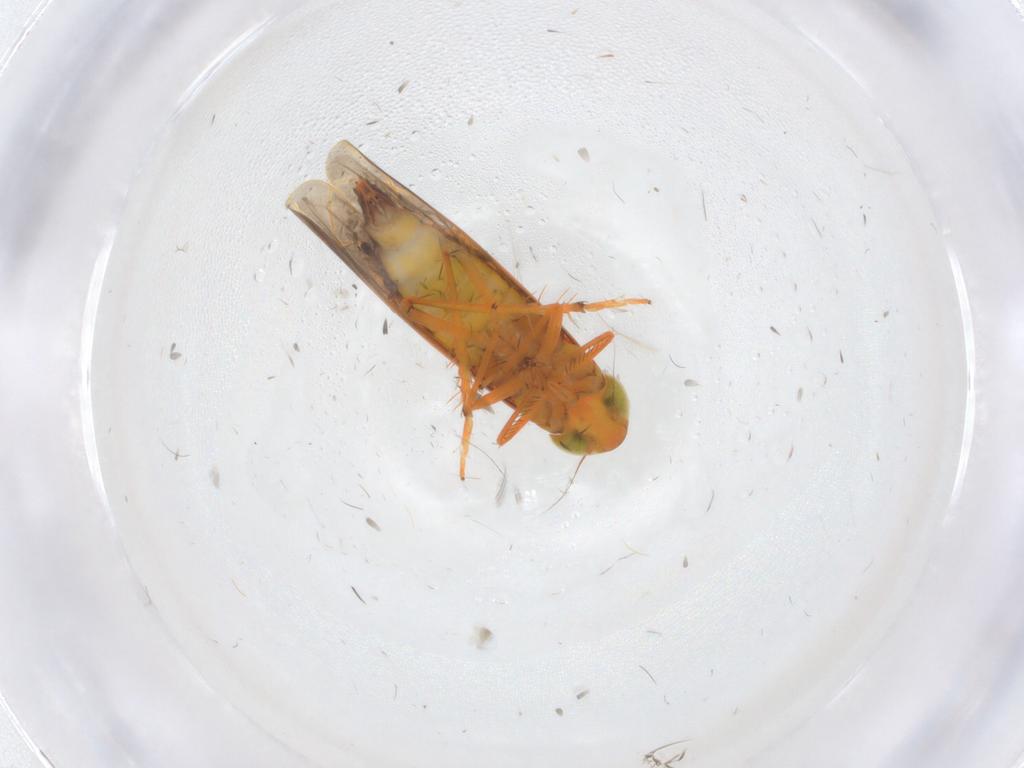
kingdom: Animalia
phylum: Arthropoda
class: Insecta
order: Hemiptera
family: Cicadellidae
